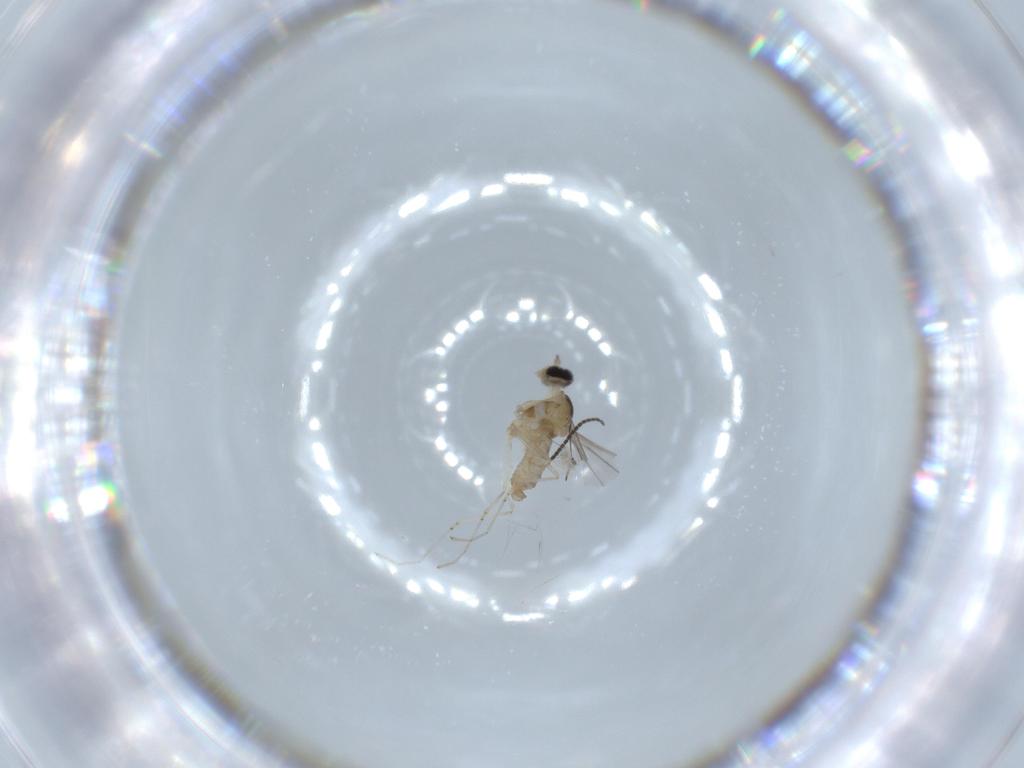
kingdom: Animalia
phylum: Arthropoda
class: Insecta
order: Diptera
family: Cecidomyiidae
